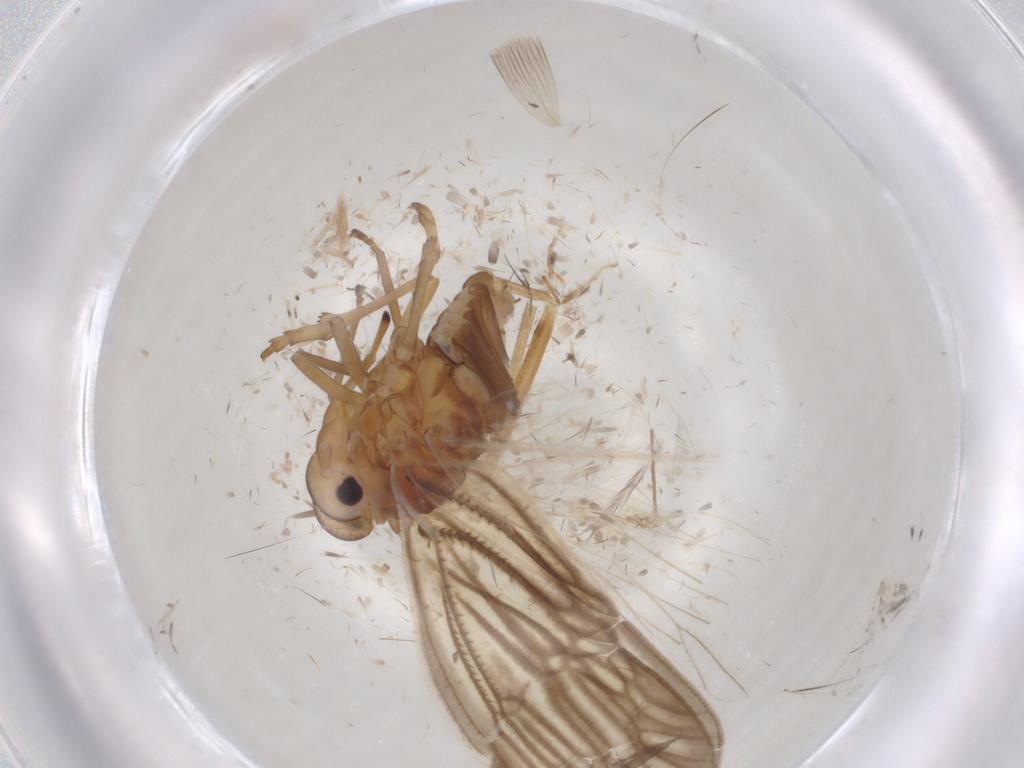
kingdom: Animalia
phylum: Arthropoda
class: Insecta
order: Hemiptera
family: Meenoplidae
